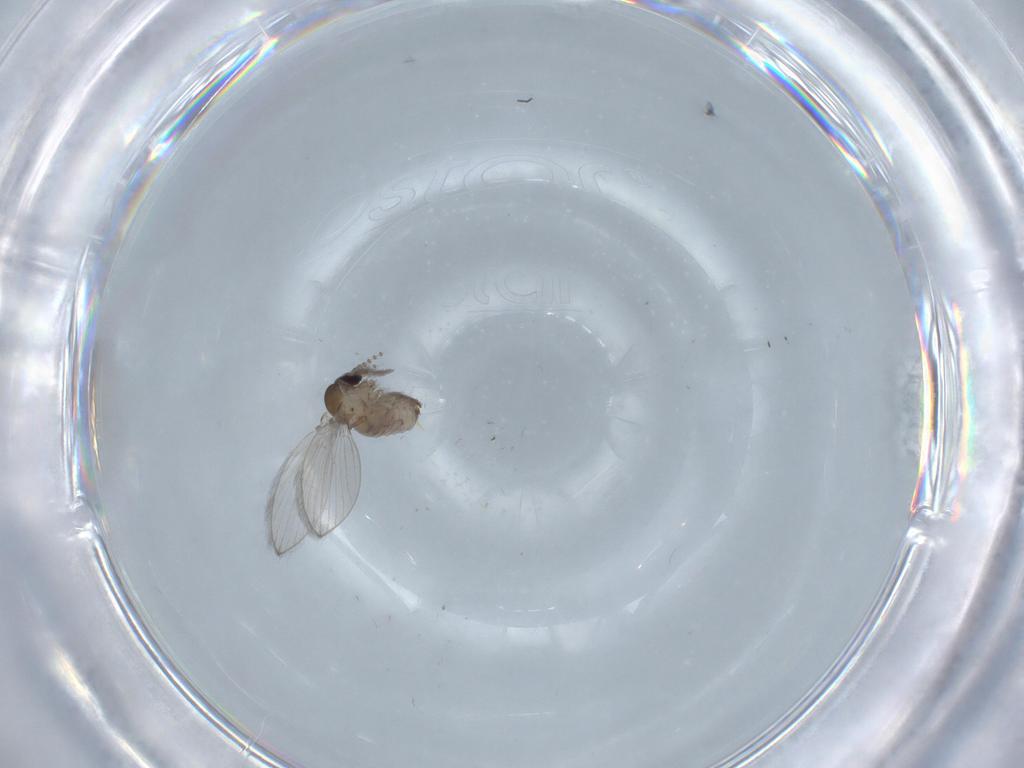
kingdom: Animalia
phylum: Arthropoda
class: Insecta
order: Diptera
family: Psychodidae
